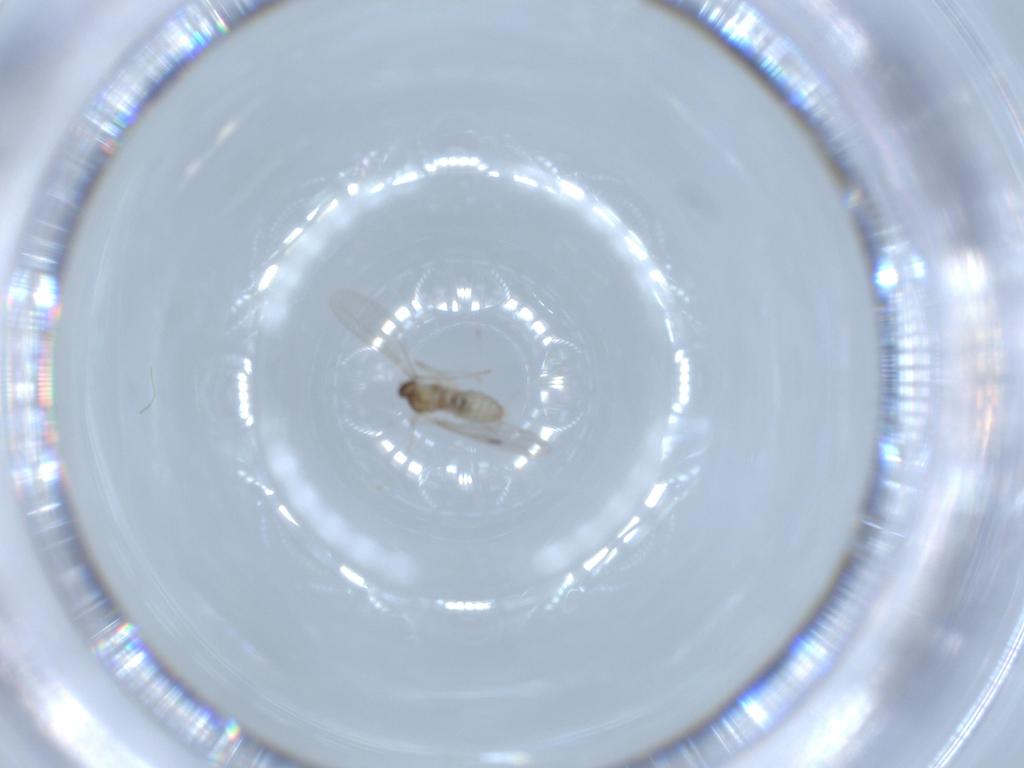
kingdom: Animalia
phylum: Arthropoda
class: Insecta
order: Diptera
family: Cecidomyiidae
